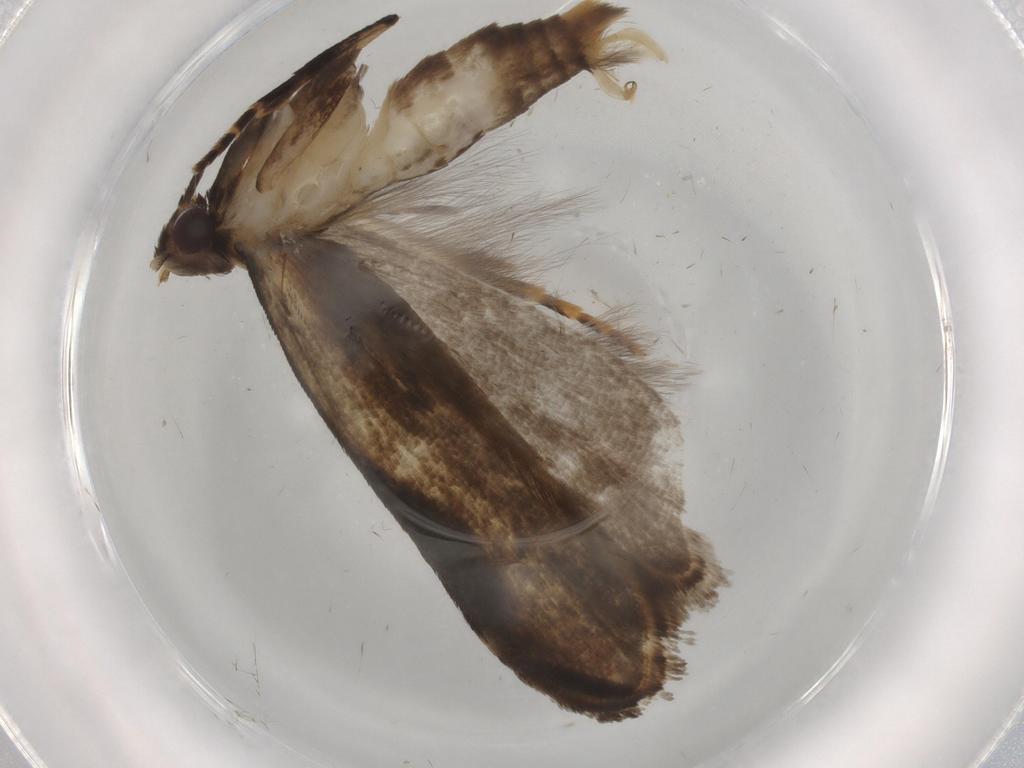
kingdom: Animalia
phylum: Arthropoda
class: Insecta
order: Lepidoptera
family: Gelechiidae
